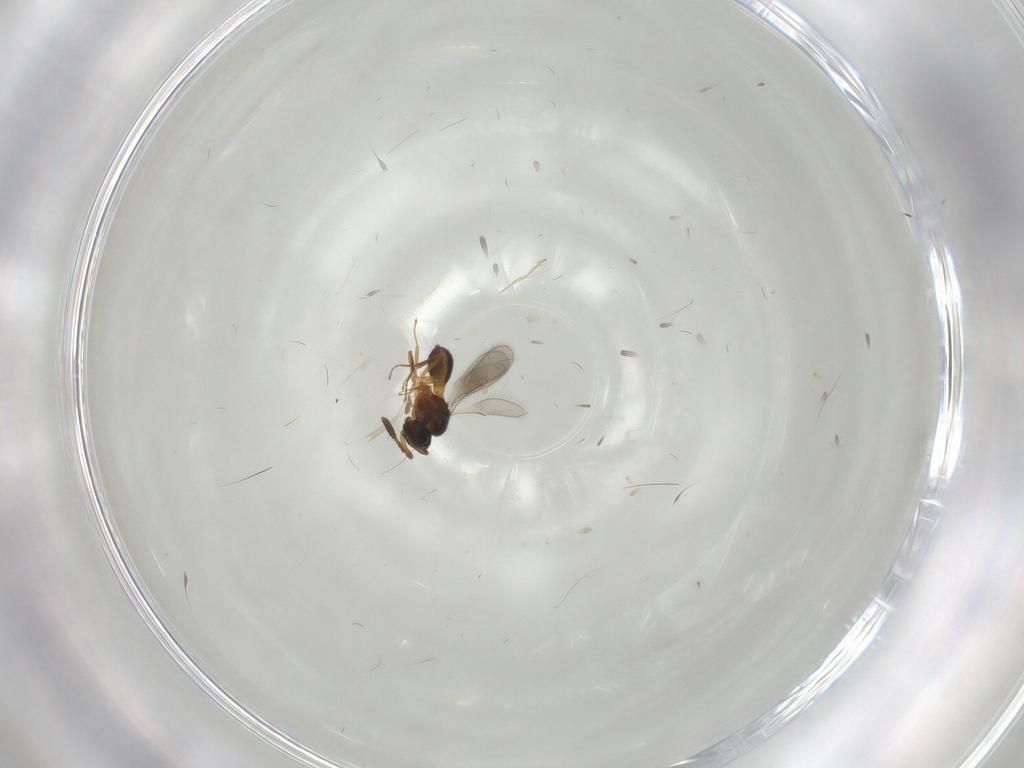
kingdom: Animalia
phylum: Arthropoda
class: Insecta
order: Hymenoptera
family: Scelionidae
